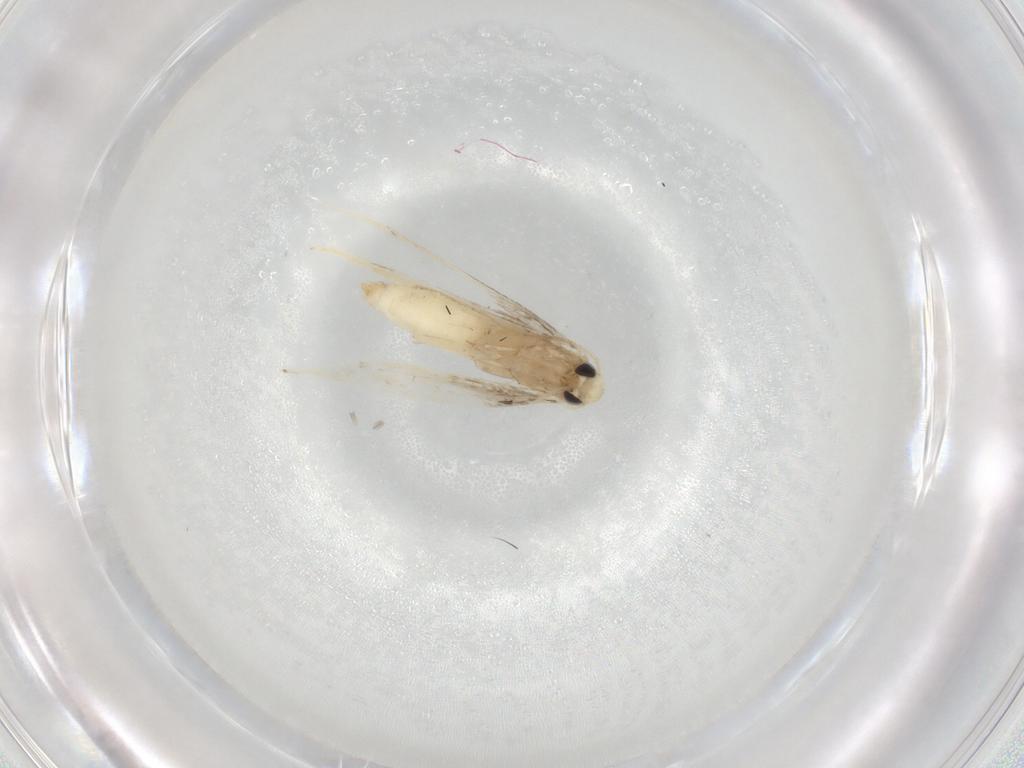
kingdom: Animalia
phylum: Arthropoda
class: Insecta
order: Lepidoptera
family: Gracillariidae
